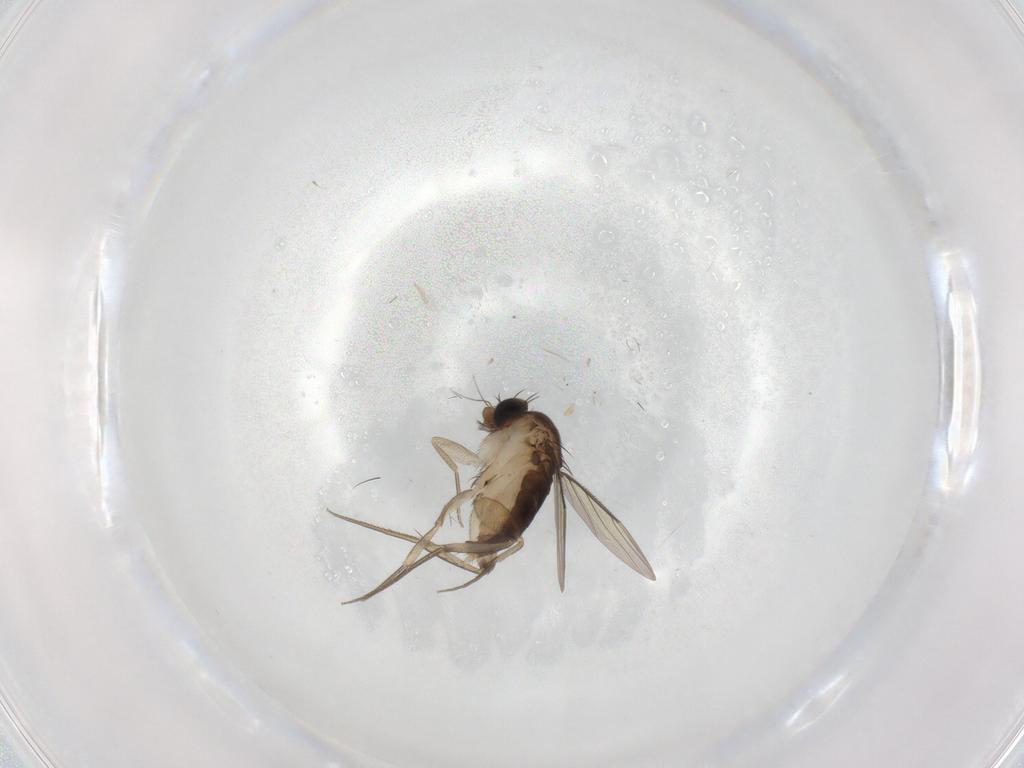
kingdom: Animalia
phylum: Arthropoda
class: Insecta
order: Diptera
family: Phoridae
